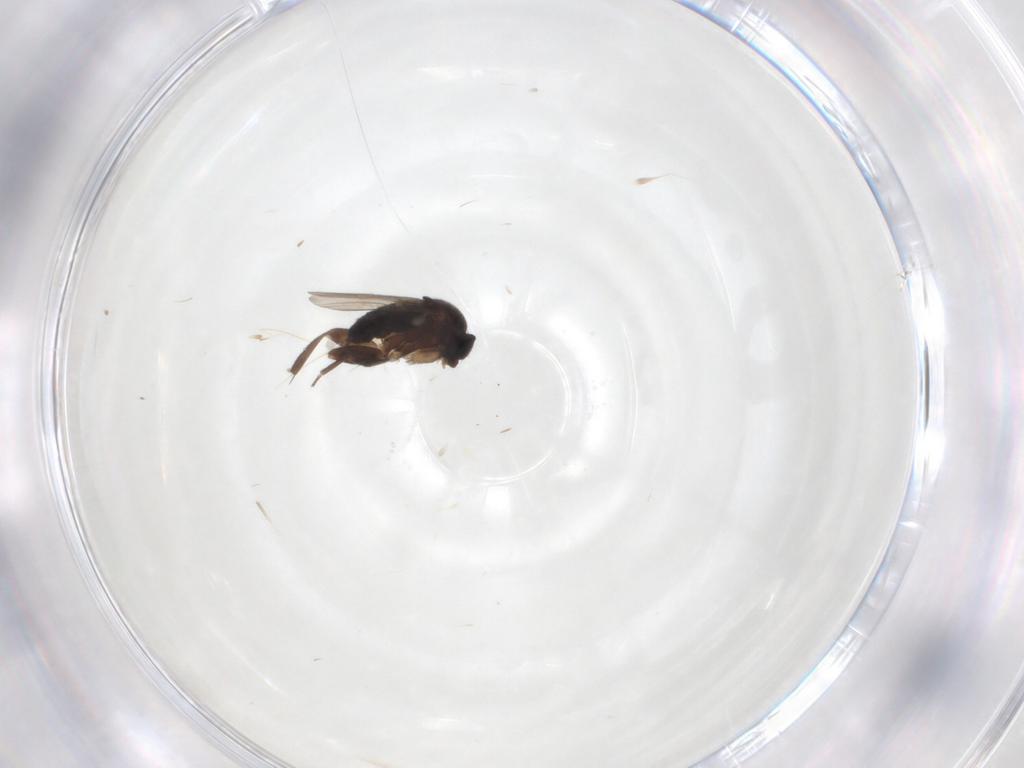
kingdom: Animalia
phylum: Arthropoda
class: Insecta
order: Diptera
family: Phoridae
